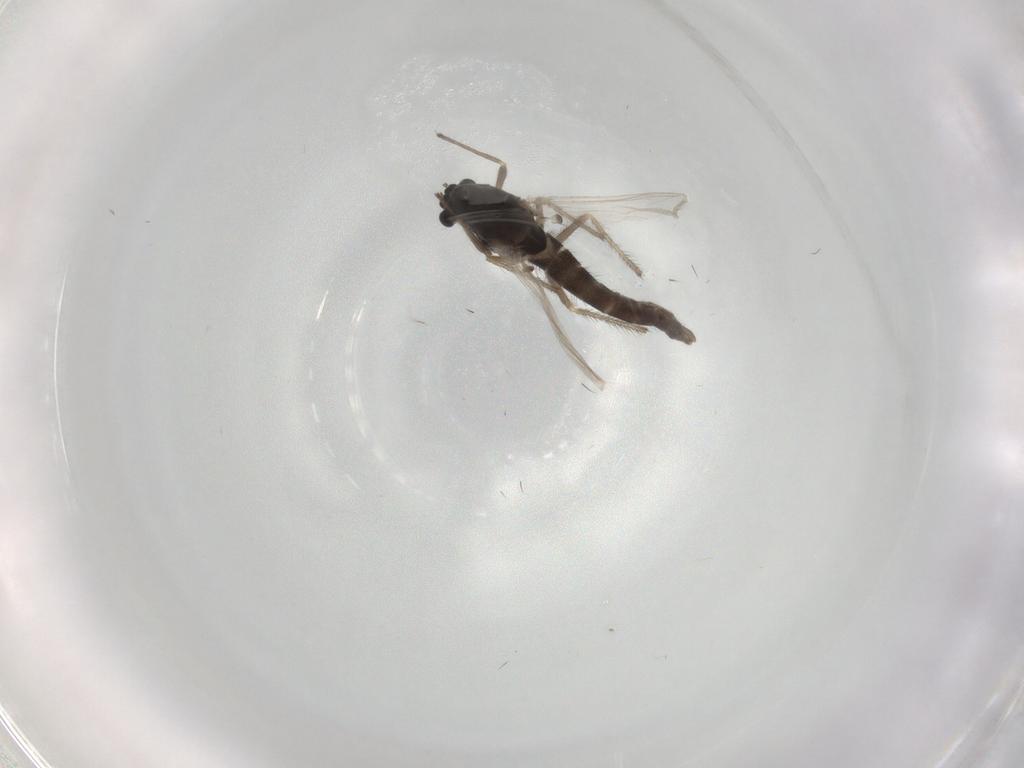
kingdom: Animalia
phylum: Arthropoda
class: Insecta
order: Diptera
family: Chironomidae
